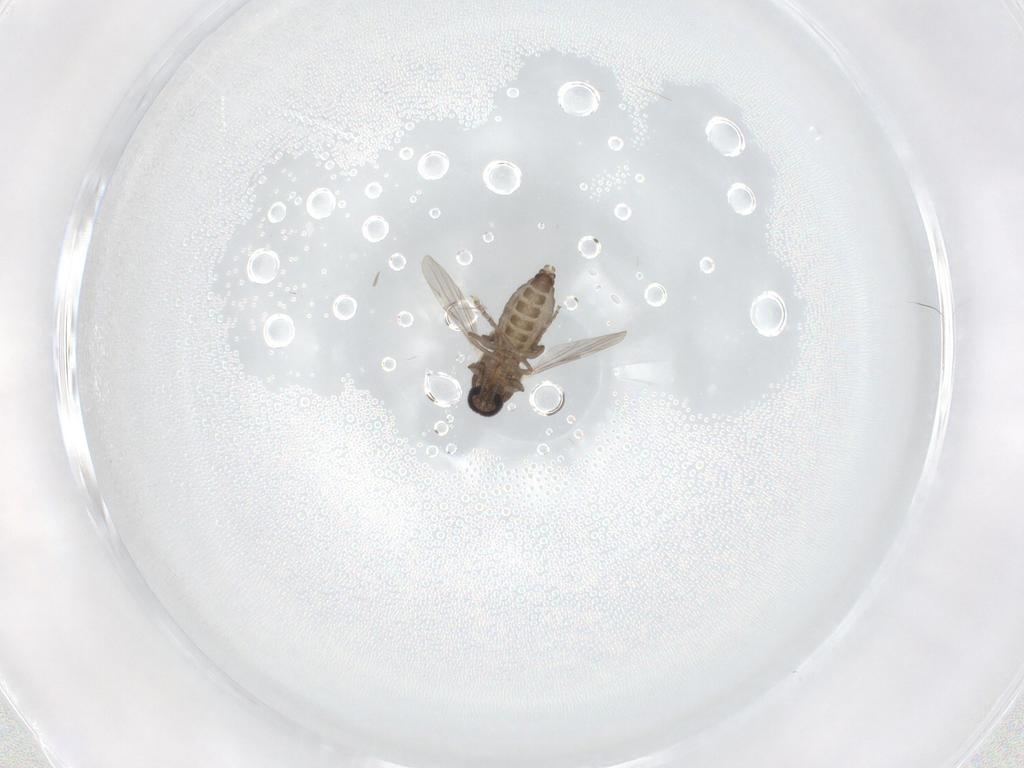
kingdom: Animalia
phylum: Arthropoda
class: Insecta
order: Diptera
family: Ceratopogonidae
